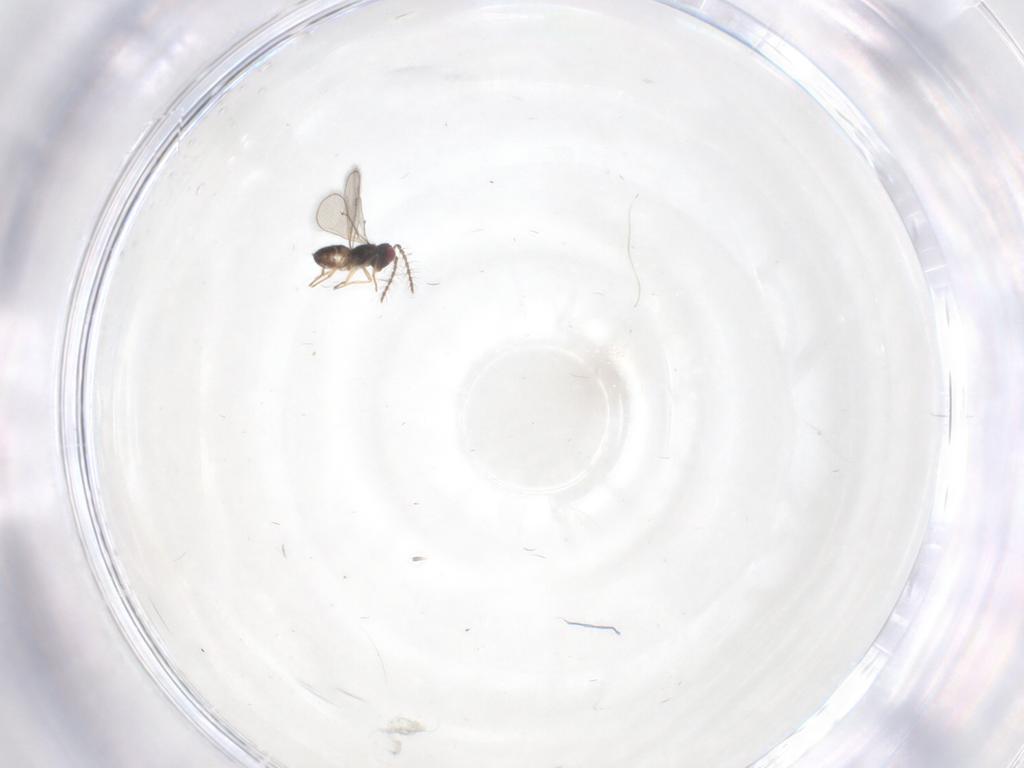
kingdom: Animalia
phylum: Arthropoda
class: Insecta
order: Hymenoptera
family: Eulophidae
